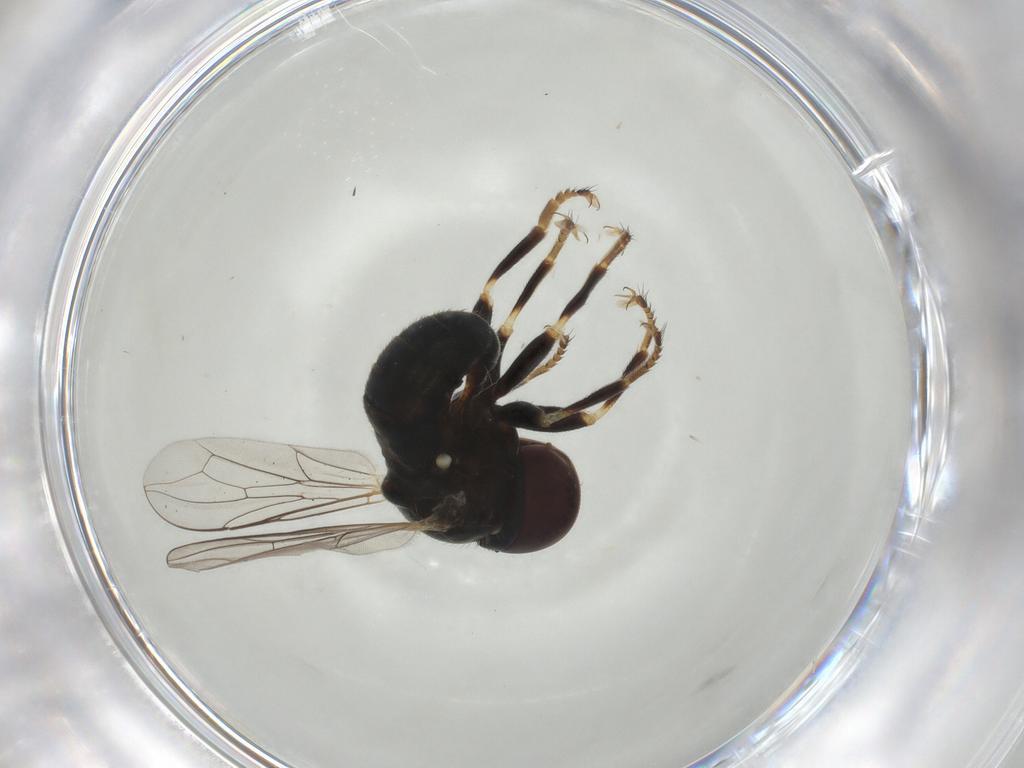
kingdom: Animalia
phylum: Arthropoda
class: Insecta
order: Diptera
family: Pipunculidae
